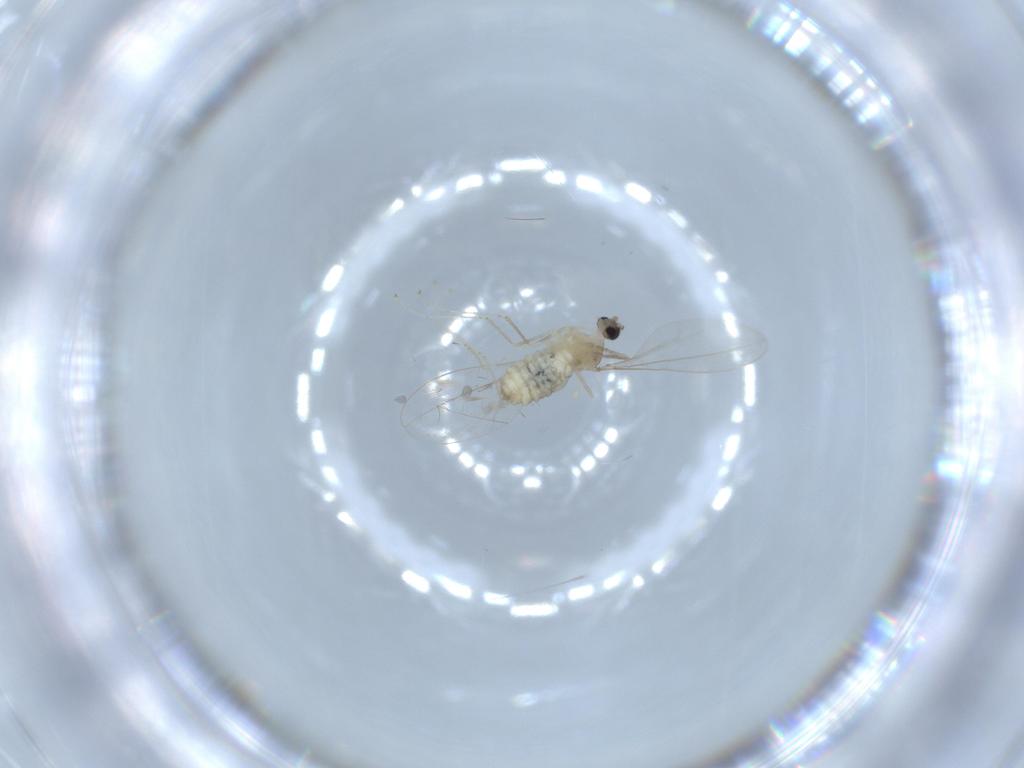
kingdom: Animalia
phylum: Arthropoda
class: Insecta
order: Diptera
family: Cecidomyiidae
